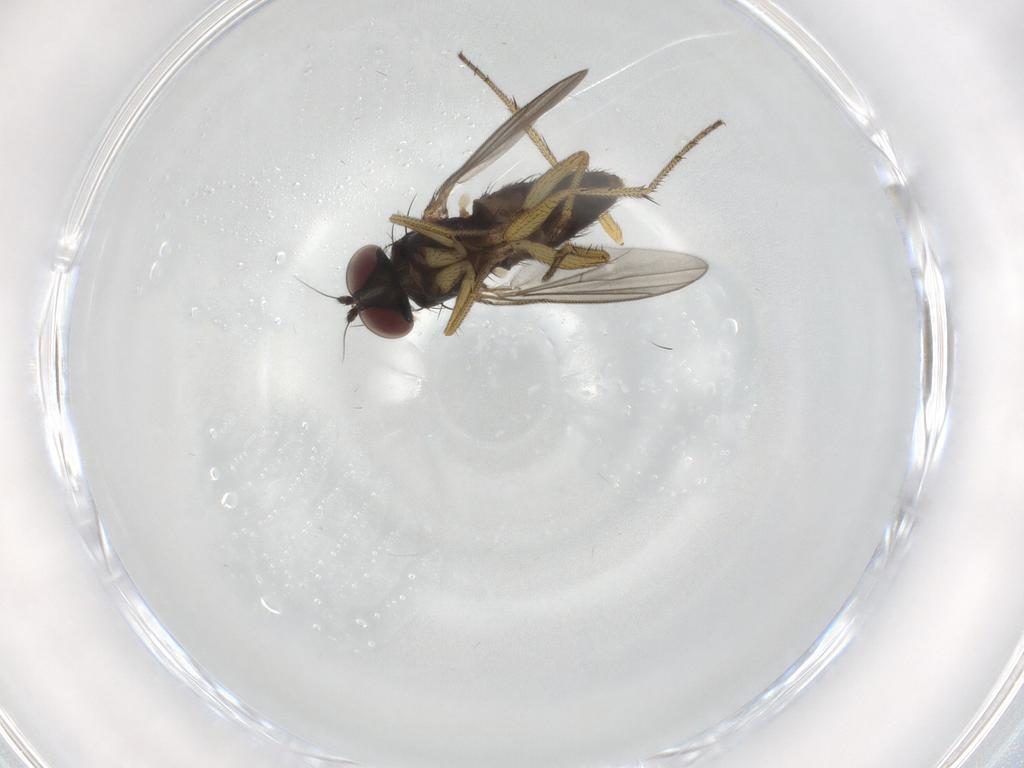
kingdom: Animalia
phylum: Arthropoda
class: Insecta
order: Diptera
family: Dolichopodidae
